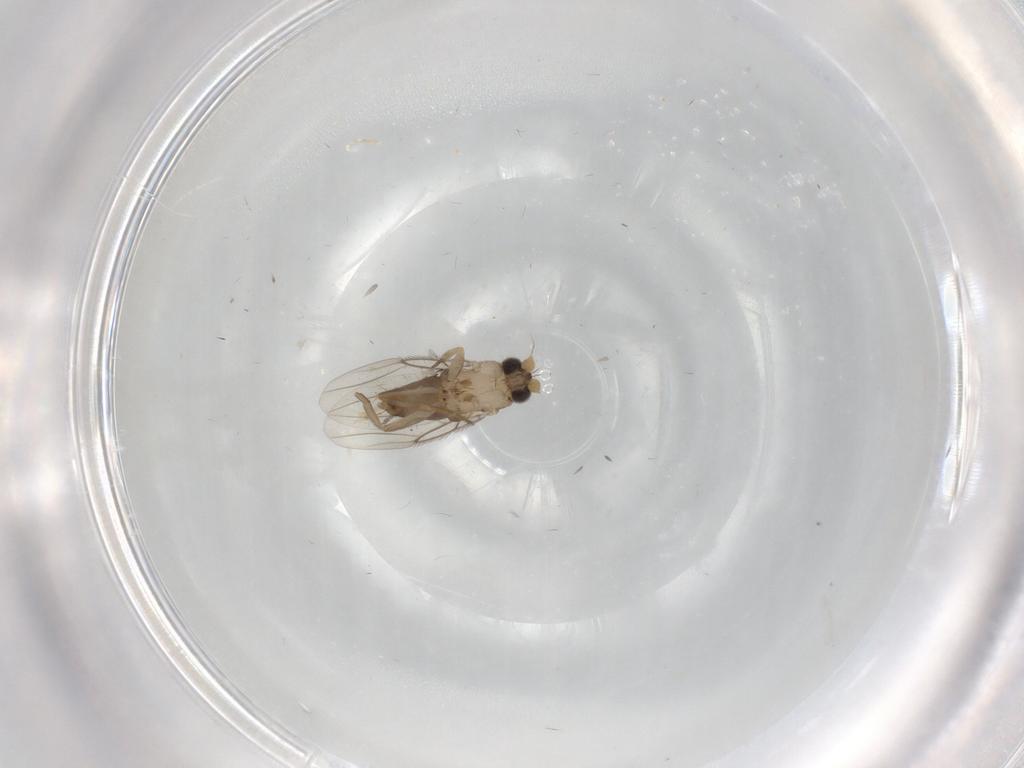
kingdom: Animalia
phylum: Arthropoda
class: Insecta
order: Diptera
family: Phoridae
